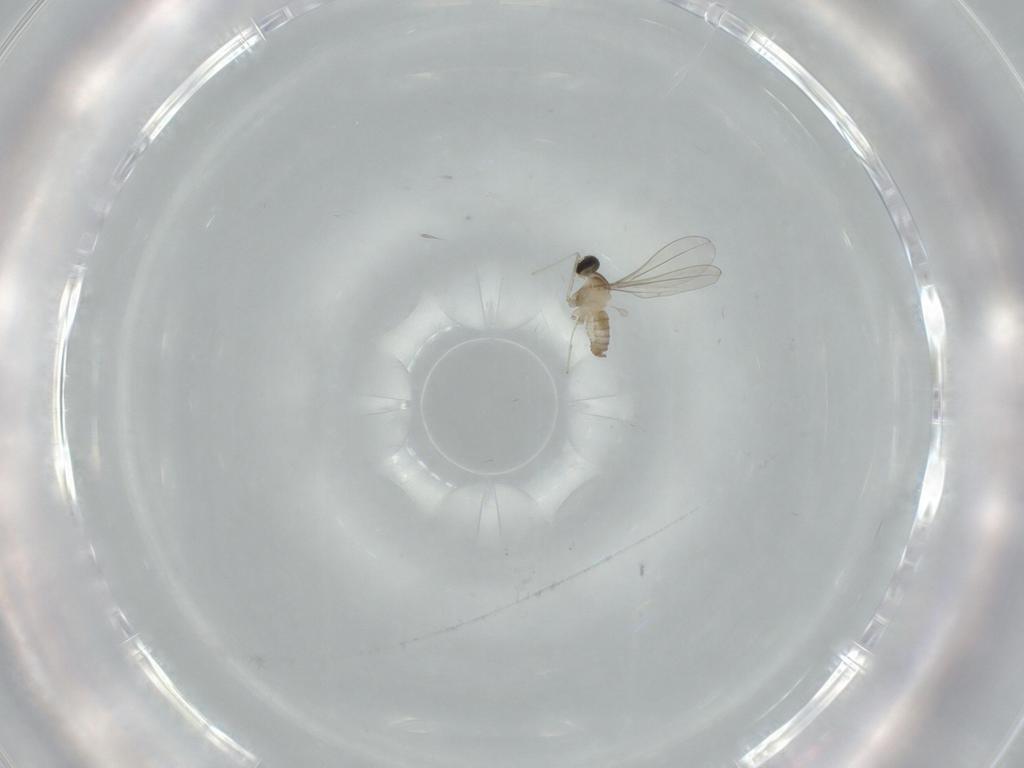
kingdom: Animalia
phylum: Arthropoda
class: Insecta
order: Diptera
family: Cecidomyiidae
